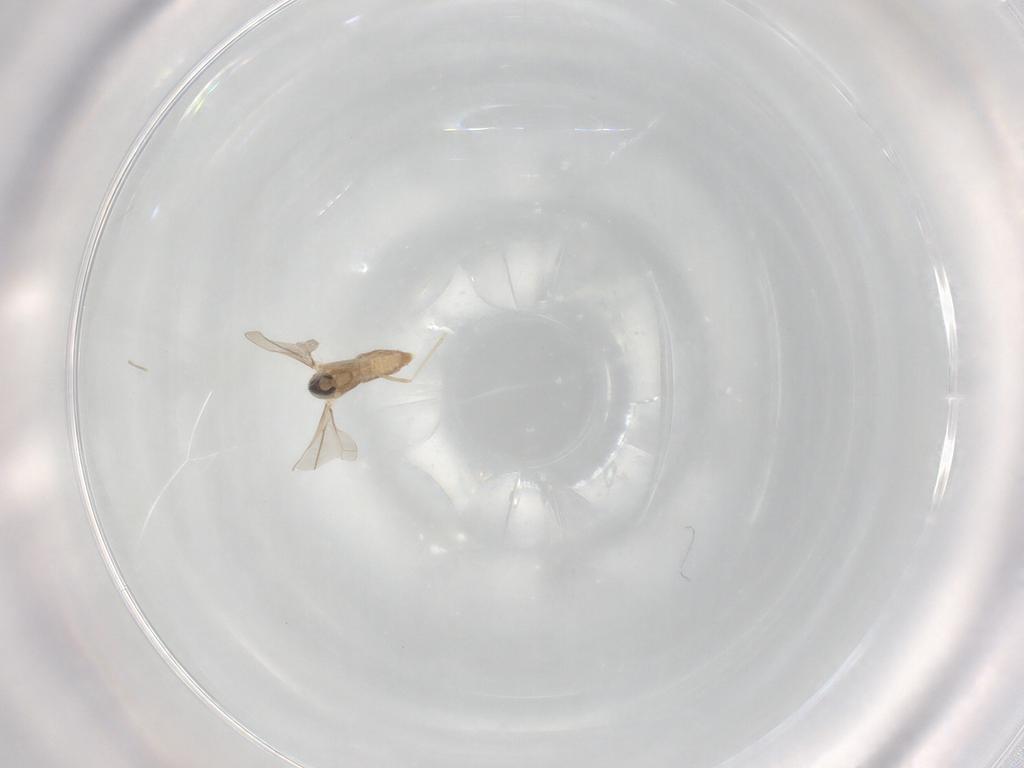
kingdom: Animalia
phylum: Arthropoda
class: Insecta
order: Diptera
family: Cecidomyiidae
